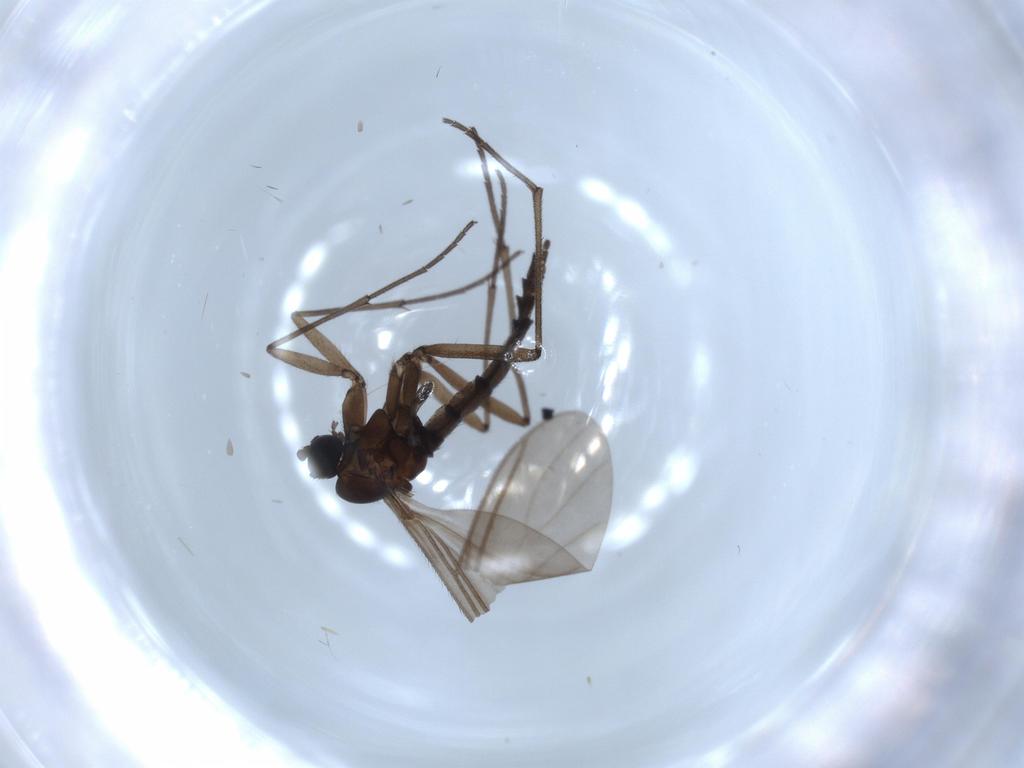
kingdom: Animalia
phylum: Arthropoda
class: Insecta
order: Diptera
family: Sciaridae
